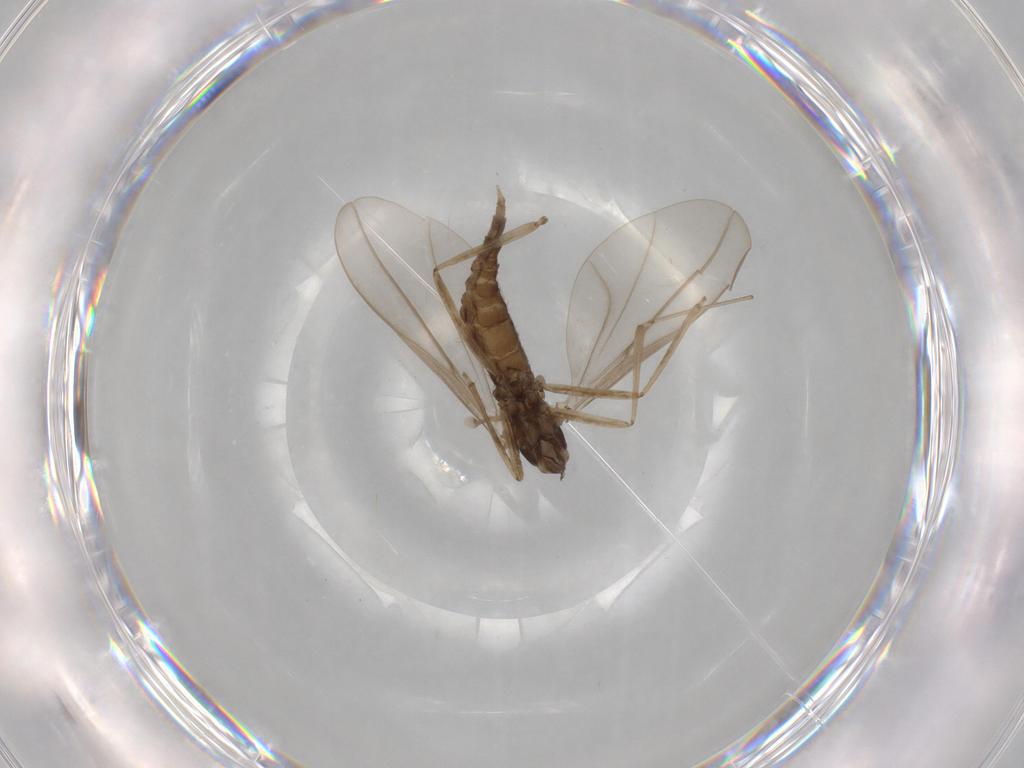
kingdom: Animalia
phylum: Arthropoda
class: Insecta
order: Diptera
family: Cecidomyiidae
